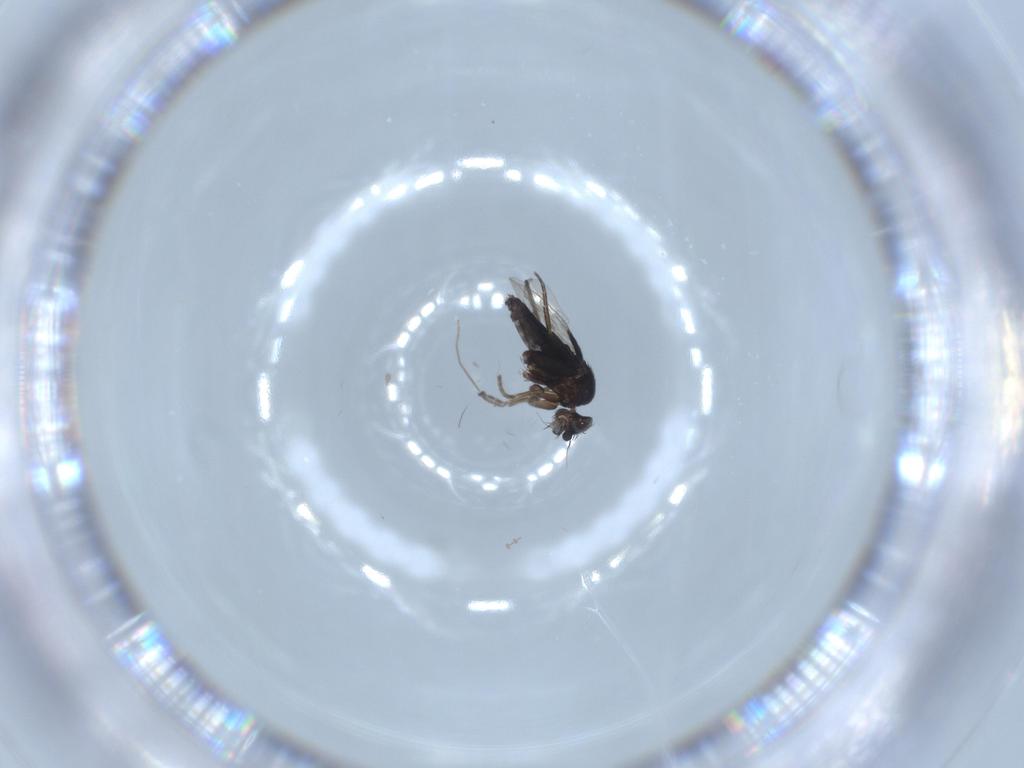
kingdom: Animalia
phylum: Arthropoda
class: Insecta
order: Diptera
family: Phoridae
